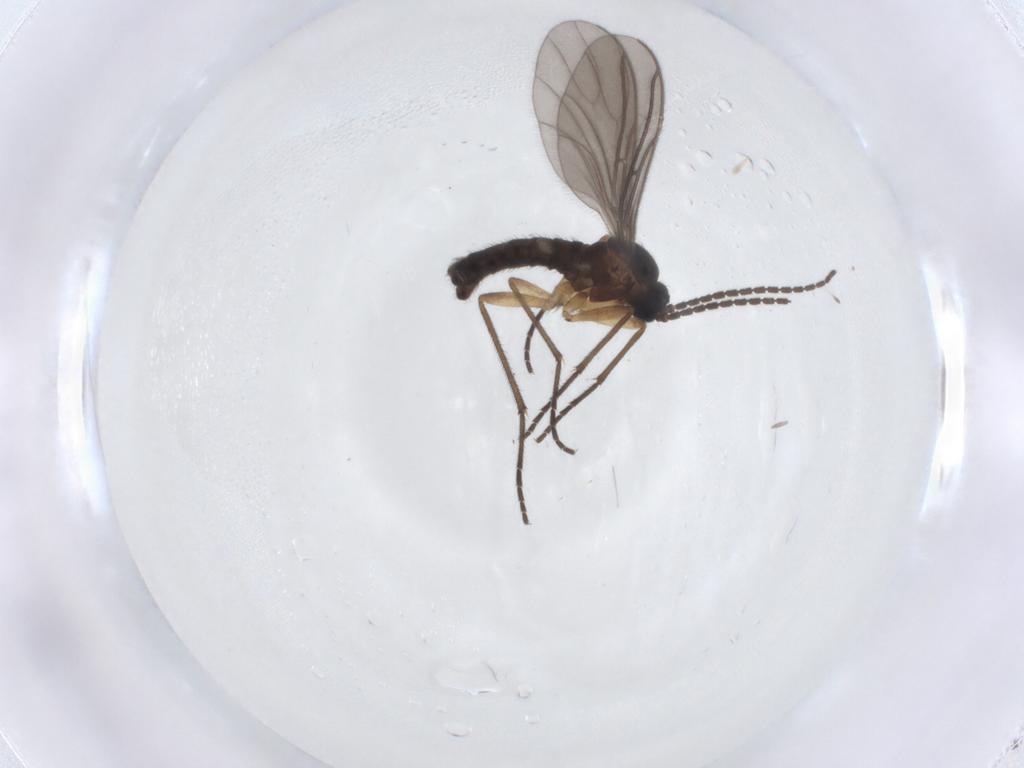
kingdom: Animalia
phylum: Arthropoda
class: Insecta
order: Diptera
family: Sciaridae
